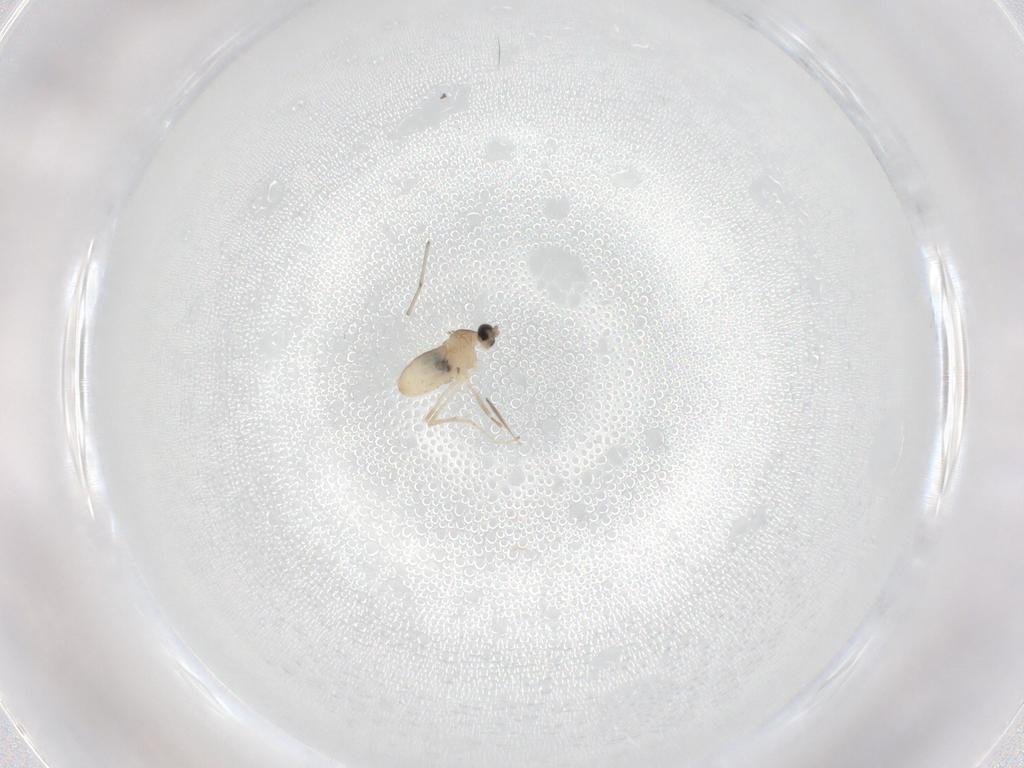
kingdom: Animalia
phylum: Arthropoda
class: Insecta
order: Diptera
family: Cecidomyiidae
